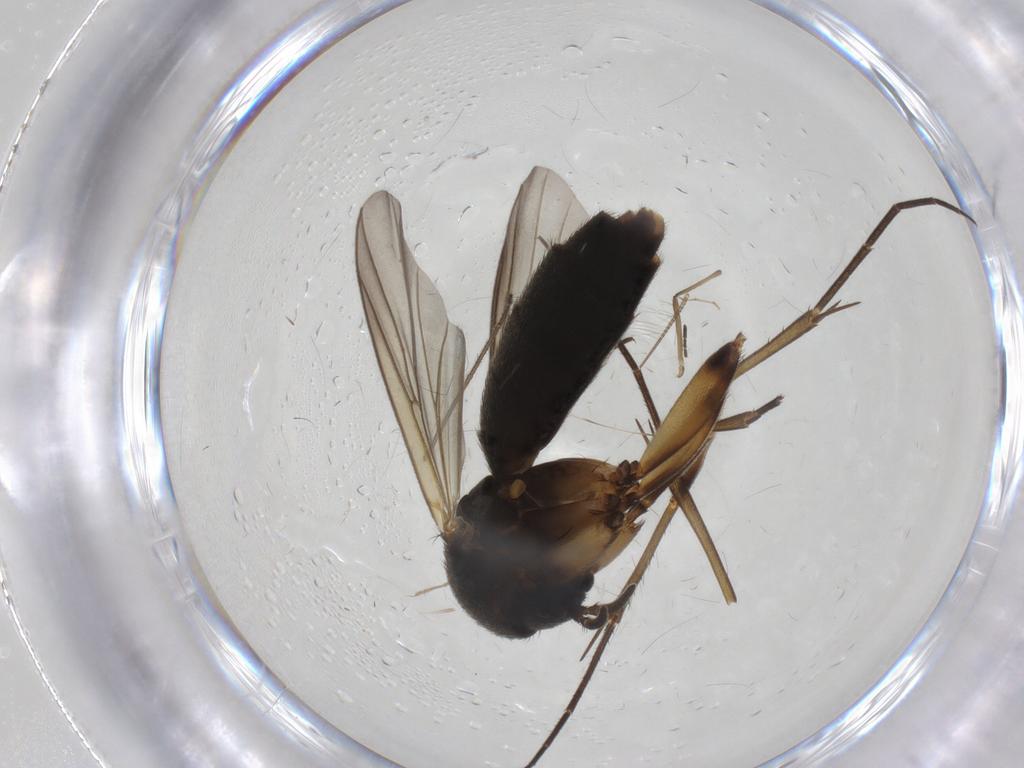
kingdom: Animalia
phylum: Arthropoda
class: Insecta
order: Diptera
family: Mycetophilidae
